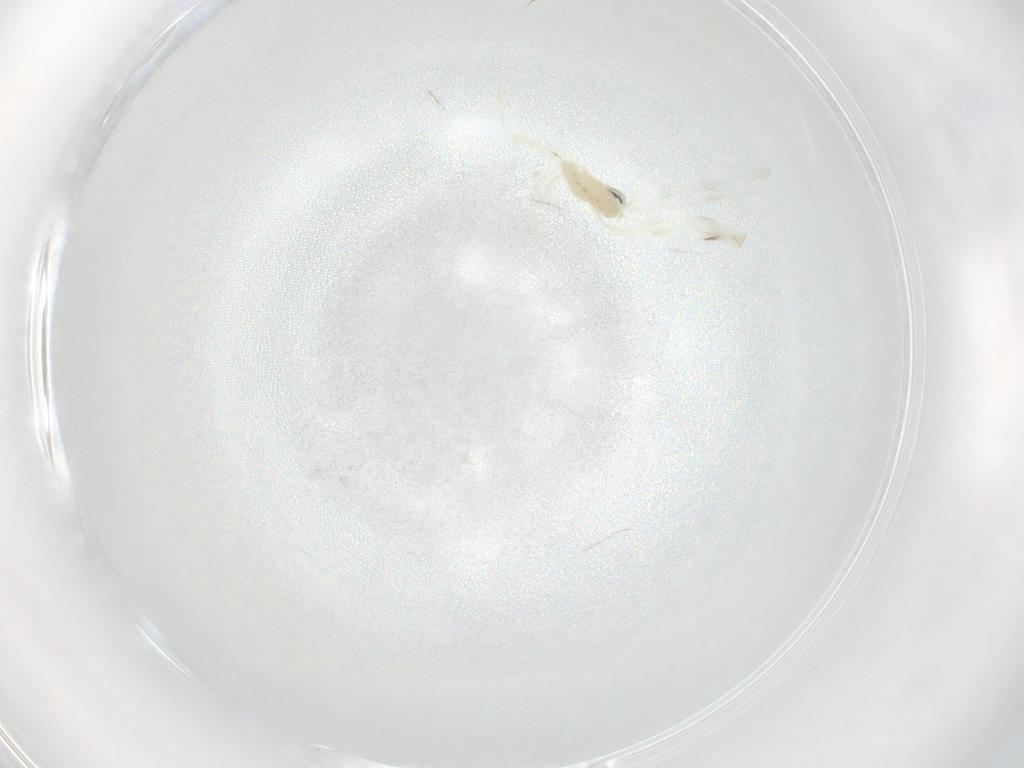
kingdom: Animalia
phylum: Arthropoda
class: Insecta
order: Diptera
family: Cecidomyiidae
